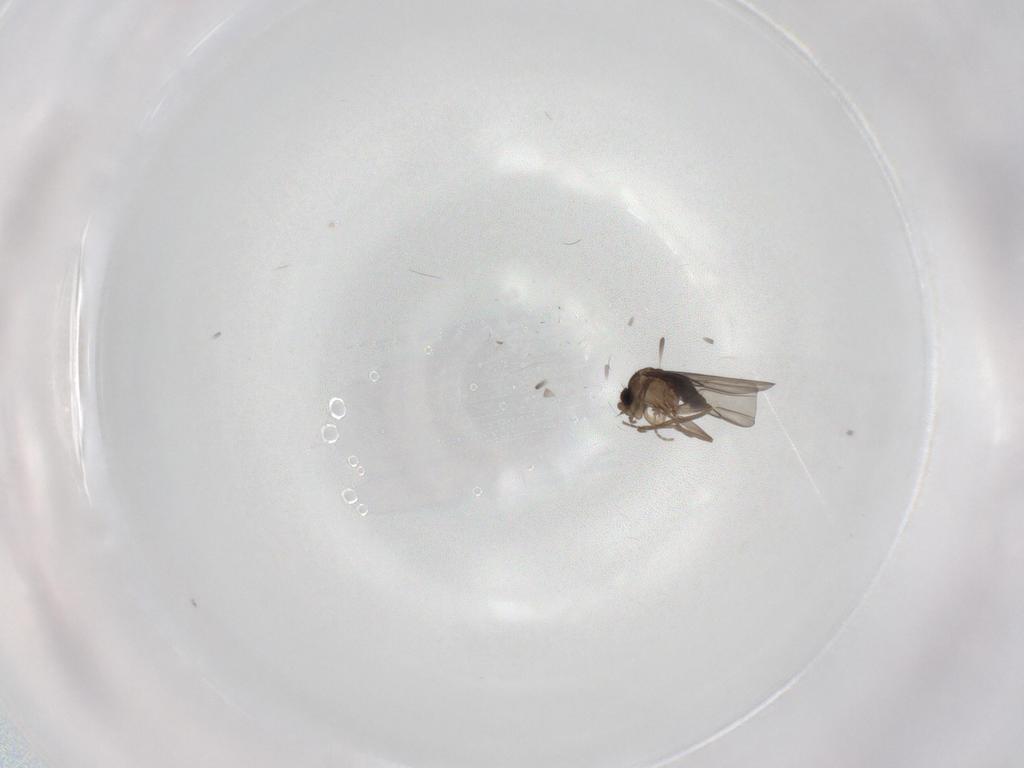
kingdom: Animalia
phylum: Arthropoda
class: Insecta
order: Diptera
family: Phoridae
